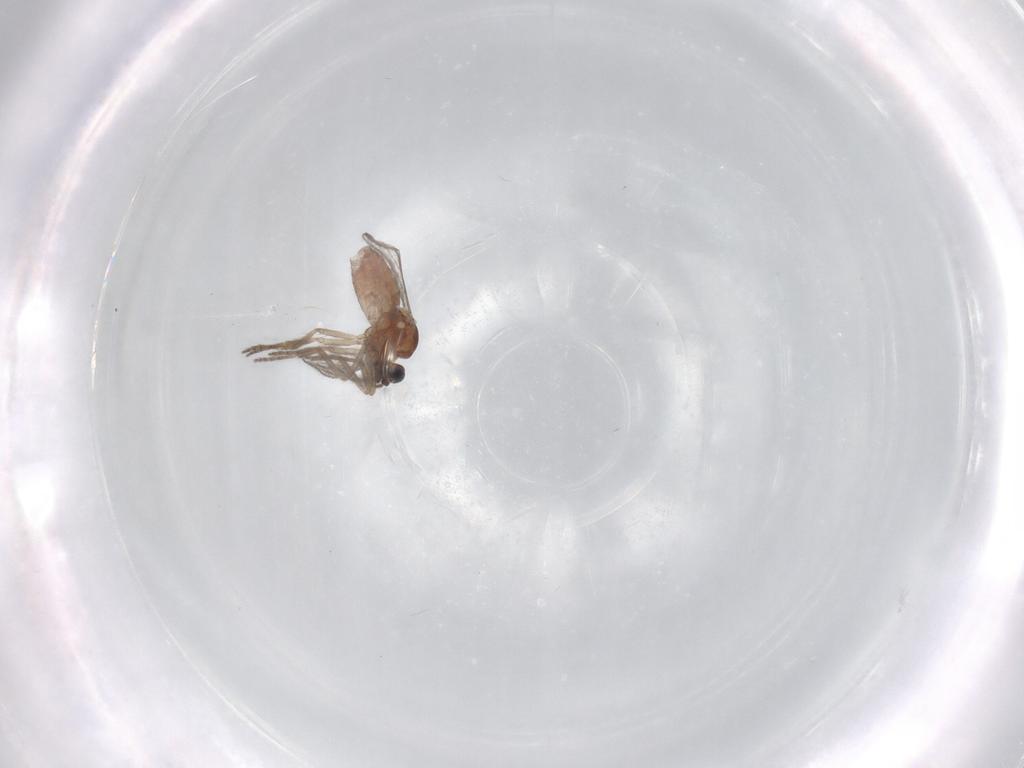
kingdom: Animalia
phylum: Arthropoda
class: Insecta
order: Diptera
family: Ceratopogonidae
